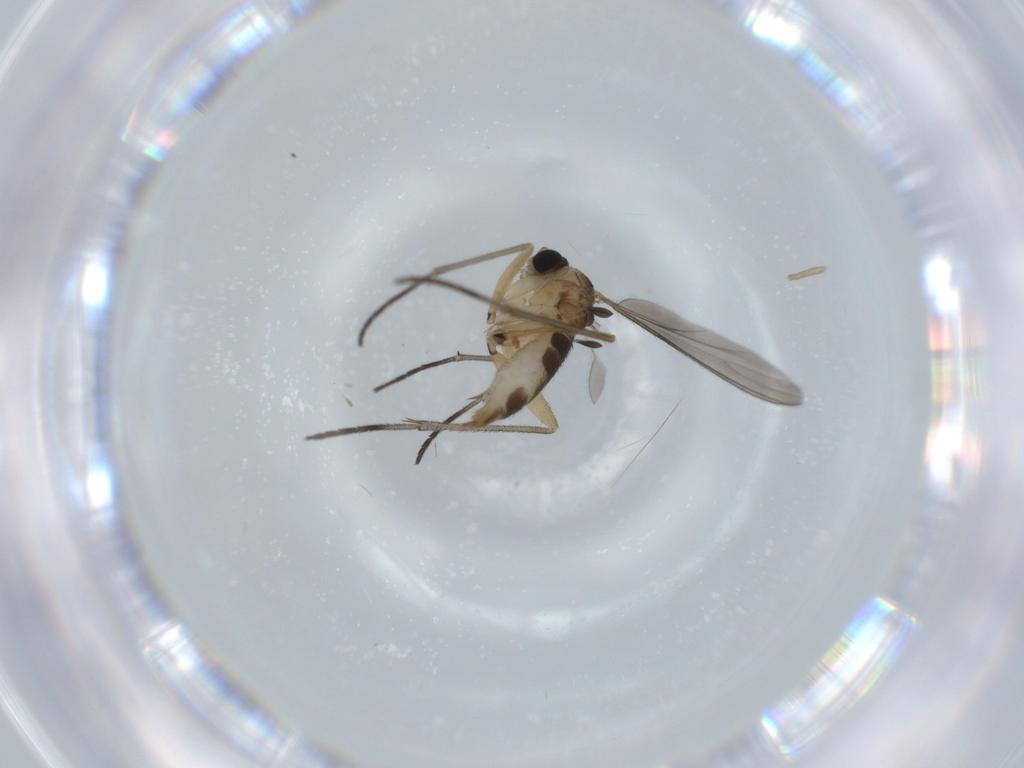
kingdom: Animalia
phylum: Arthropoda
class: Insecta
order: Diptera
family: Sciaridae
